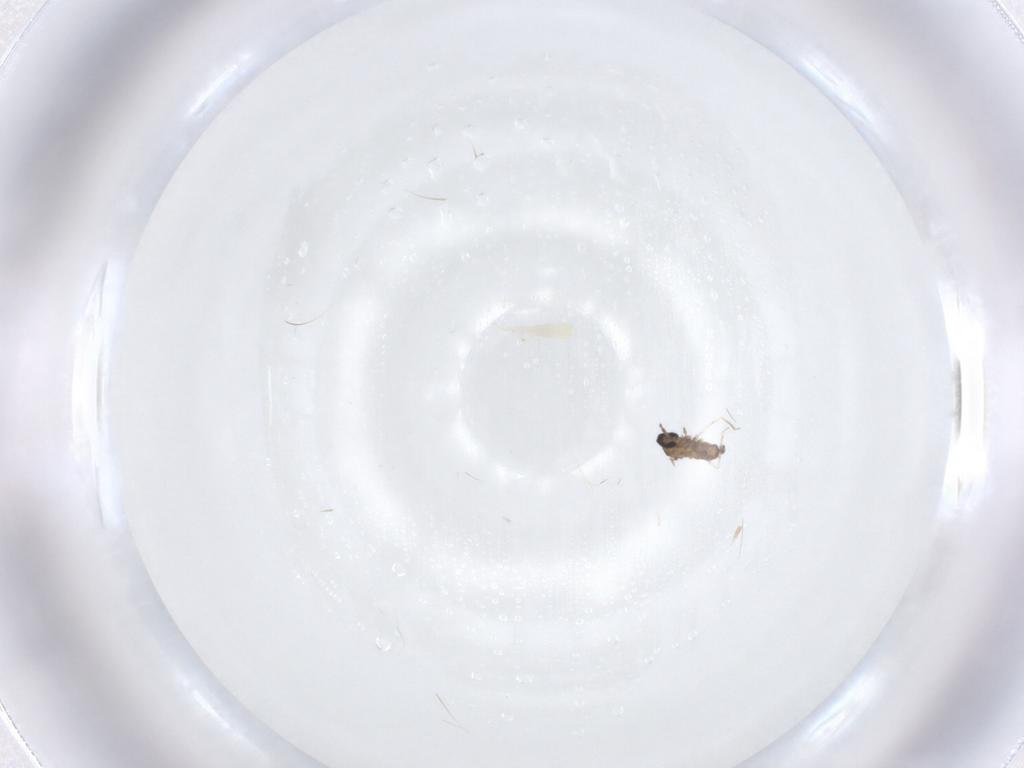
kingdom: Animalia
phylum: Arthropoda
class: Insecta
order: Diptera
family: Cecidomyiidae
